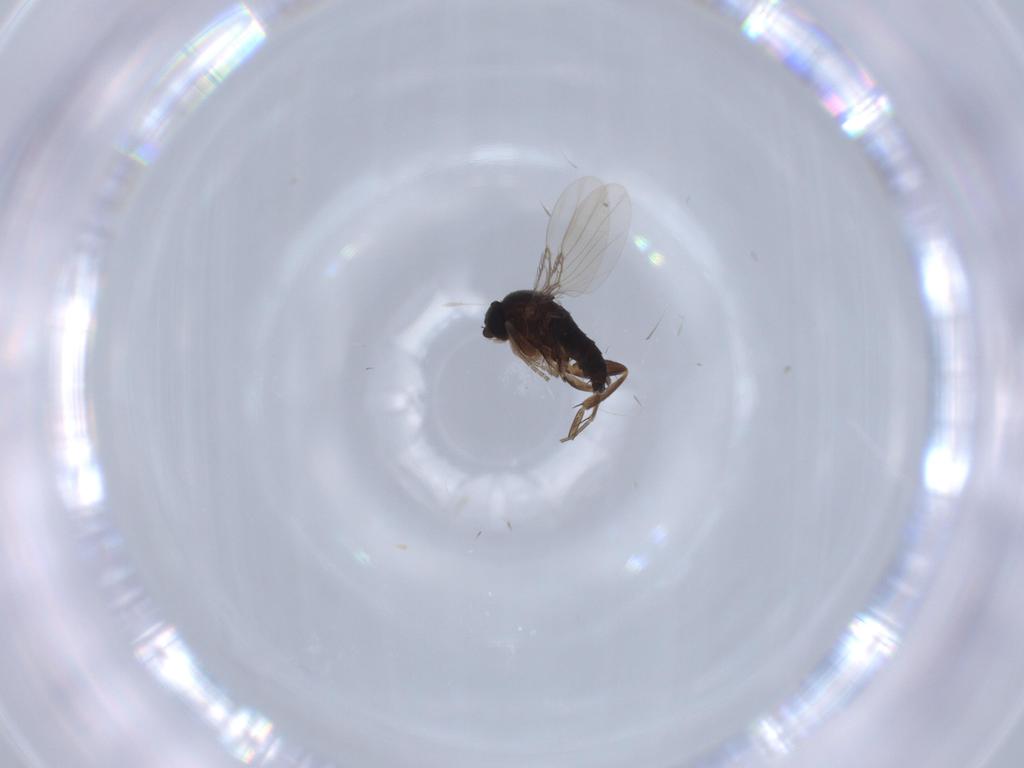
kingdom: Animalia
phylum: Arthropoda
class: Insecta
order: Diptera
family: Phoridae
